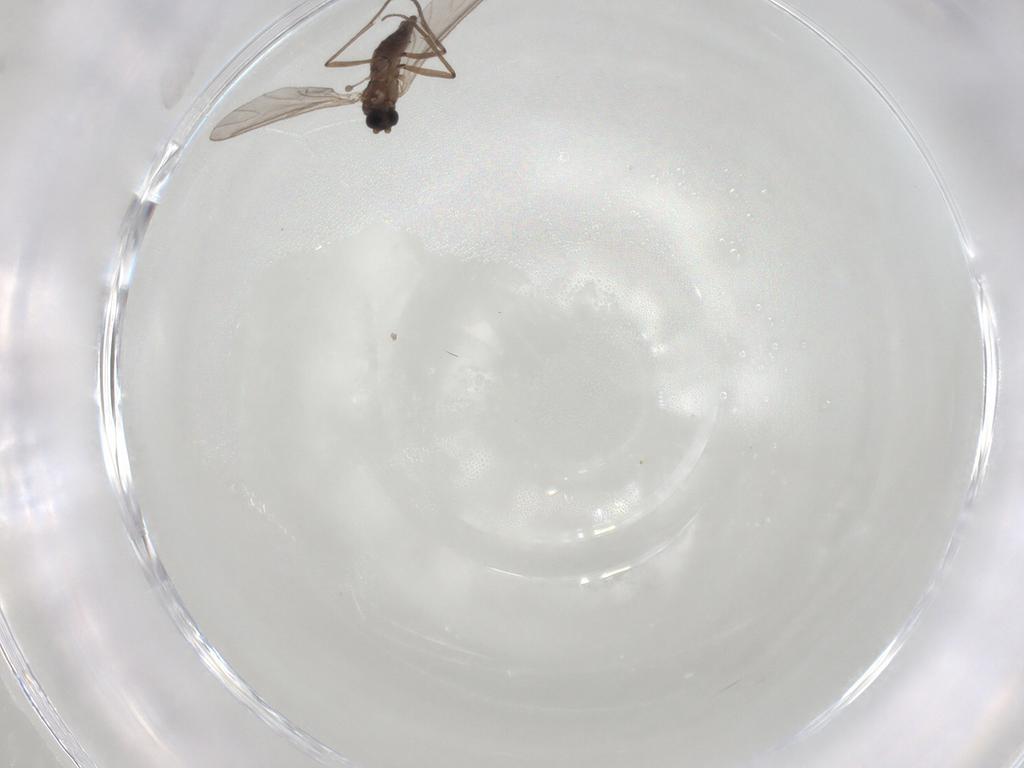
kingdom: Animalia
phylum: Arthropoda
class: Insecta
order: Diptera
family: Sciaridae
